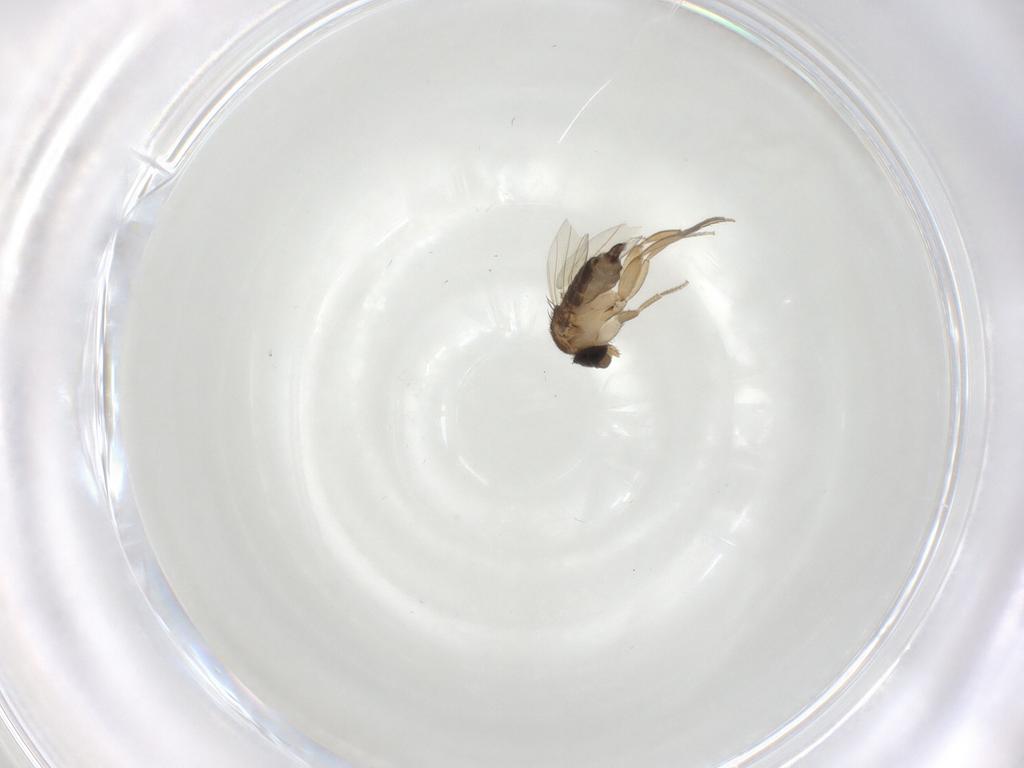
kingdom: Animalia
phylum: Arthropoda
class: Insecta
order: Diptera
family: Sciaridae
